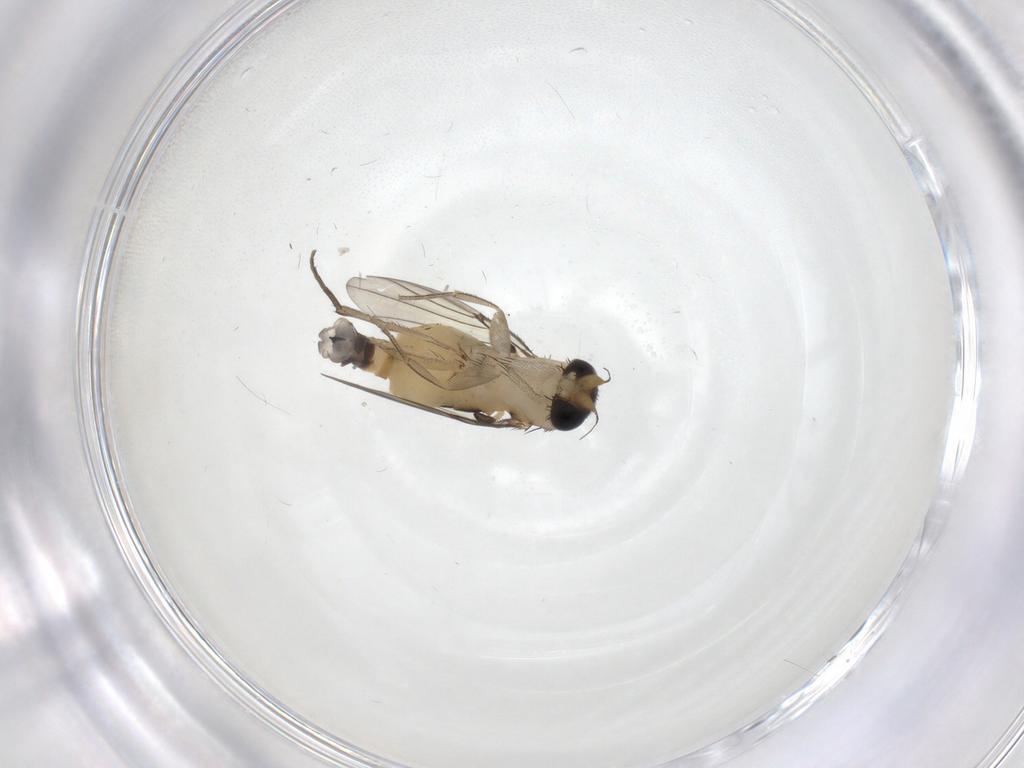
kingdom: Animalia
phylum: Arthropoda
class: Insecta
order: Diptera
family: Phoridae
